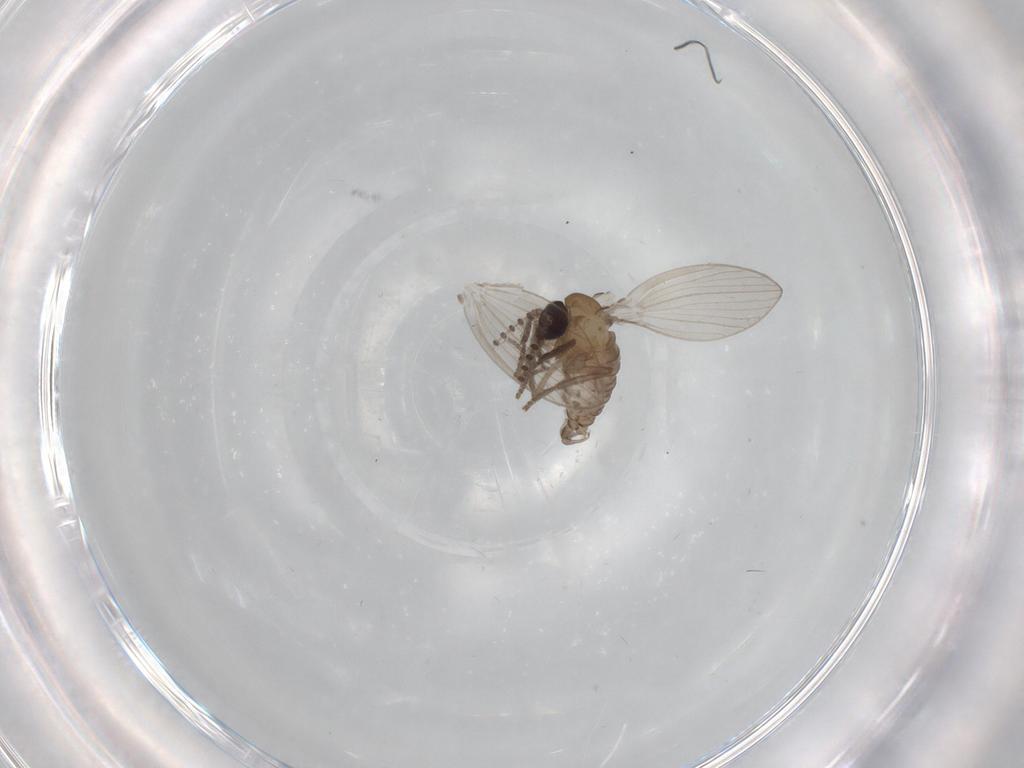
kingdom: Animalia
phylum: Arthropoda
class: Insecta
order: Diptera
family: Psychodidae
